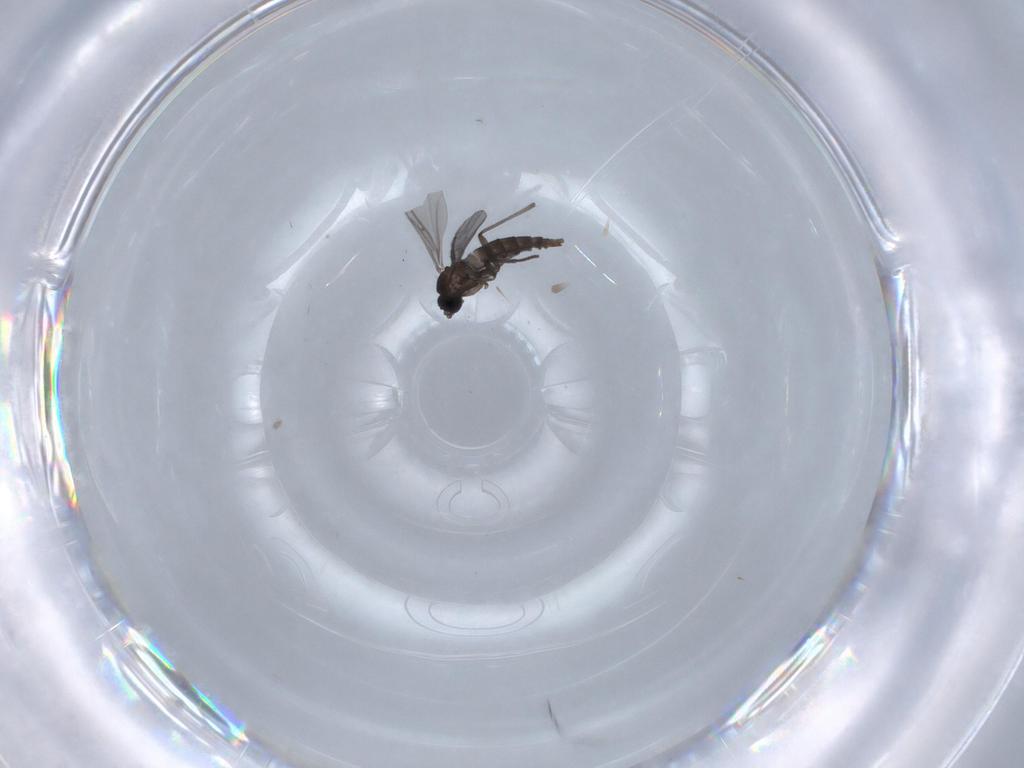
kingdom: Animalia
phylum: Arthropoda
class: Insecta
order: Diptera
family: Sciaridae
